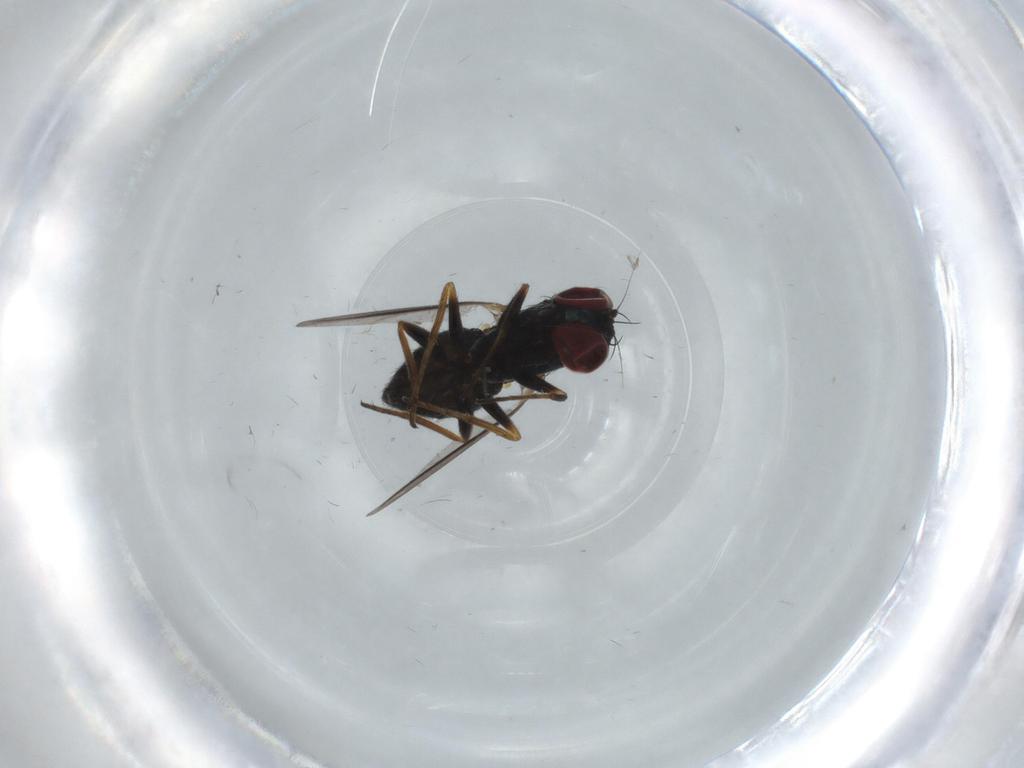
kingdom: Animalia
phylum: Arthropoda
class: Insecta
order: Diptera
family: Dolichopodidae
